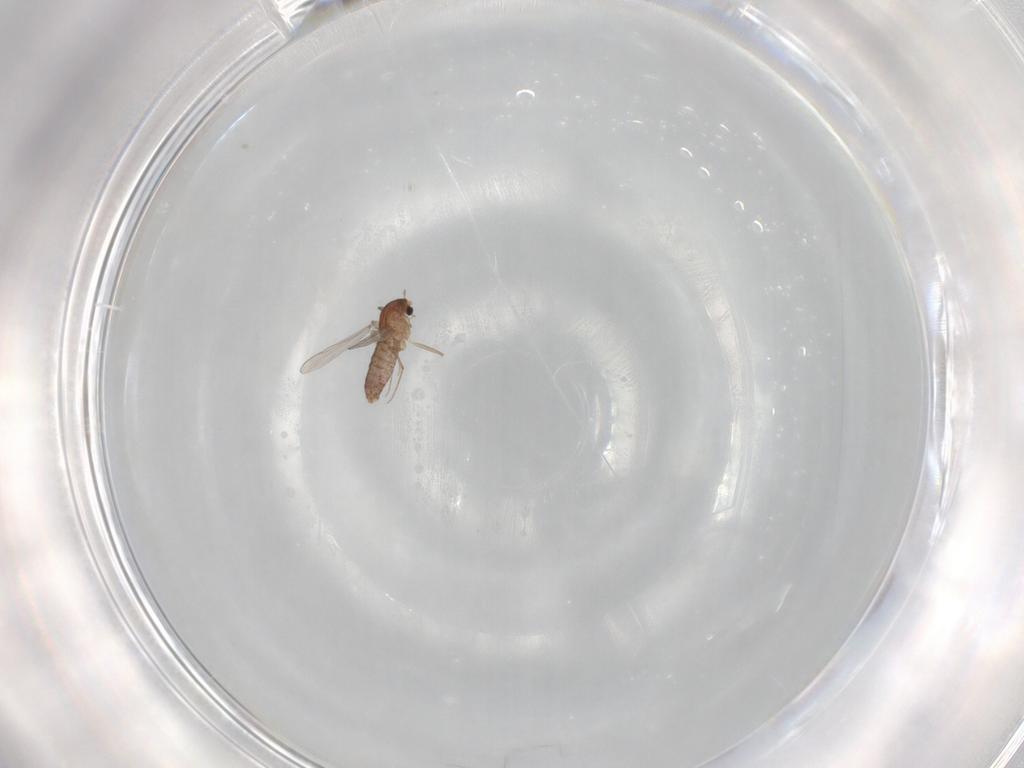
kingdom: Animalia
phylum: Arthropoda
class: Insecta
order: Diptera
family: Chironomidae
